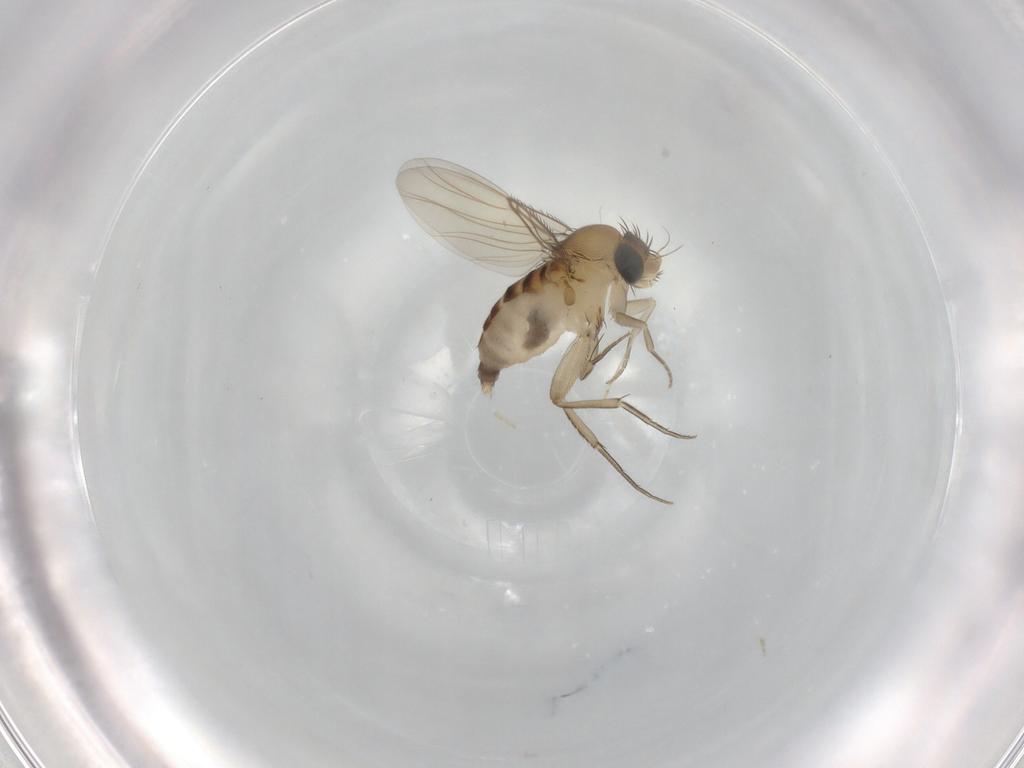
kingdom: Animalia
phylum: Arthropoda
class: Insecta
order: Diptera
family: Phoridae
